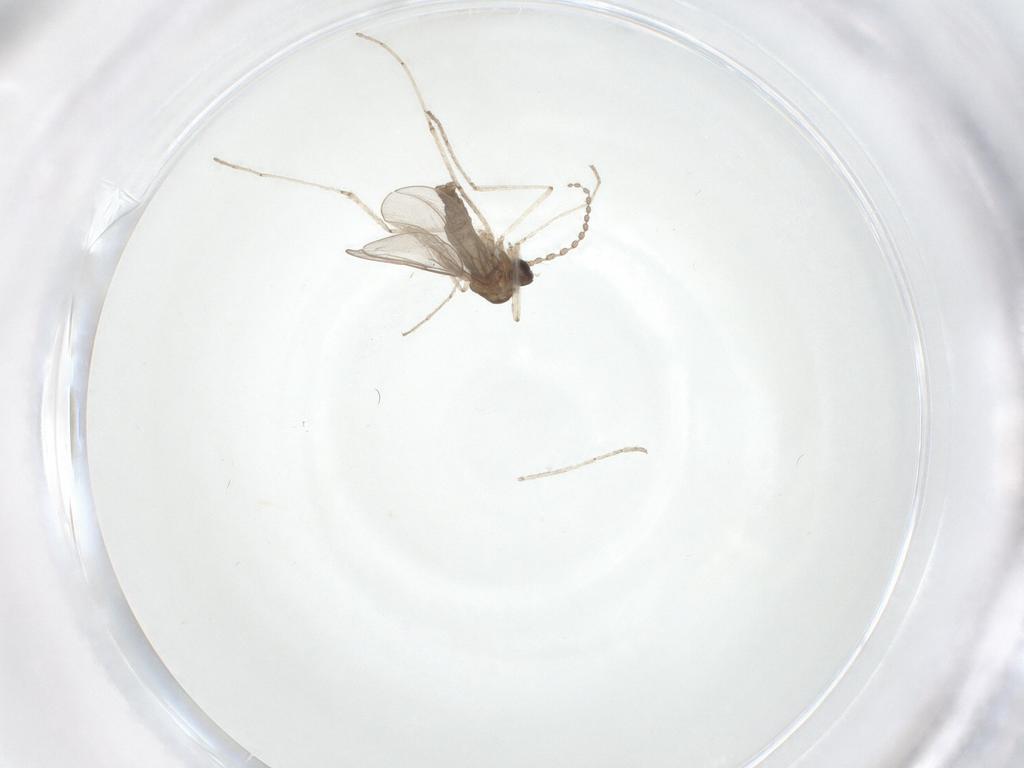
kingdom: Animalia
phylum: Arthropoda
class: Insecta
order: Diptera
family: Cecidomyiidae
